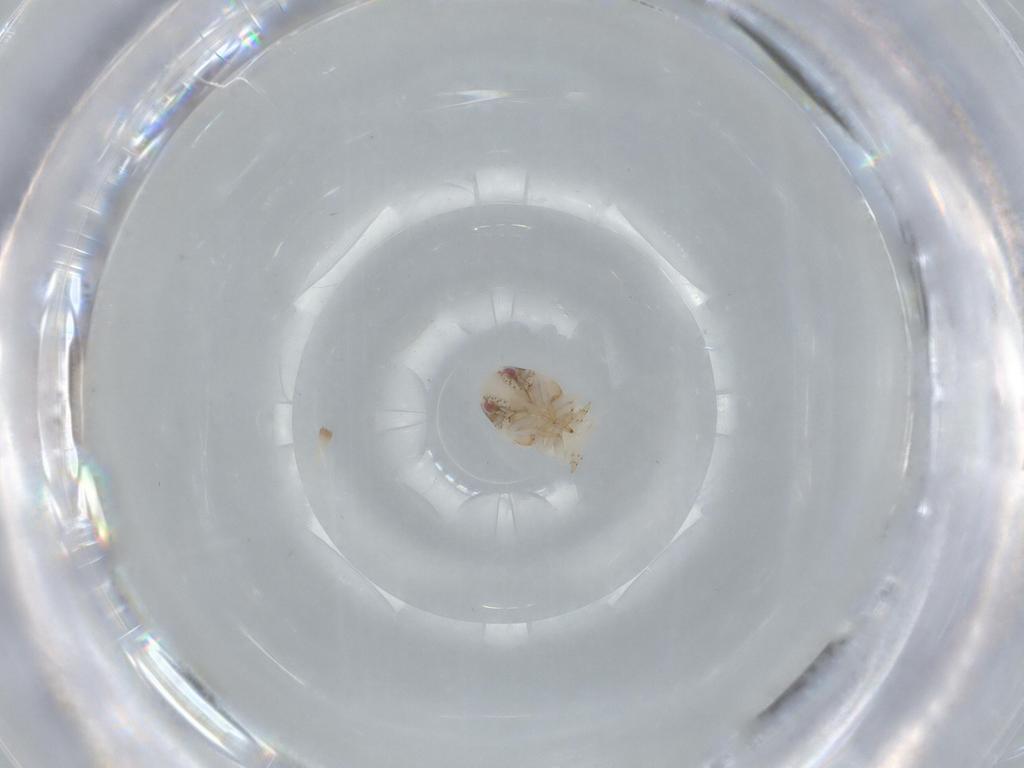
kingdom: Animalia
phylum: Arthropoda
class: Insecta
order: Hemiptera
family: Acanaloniidae
